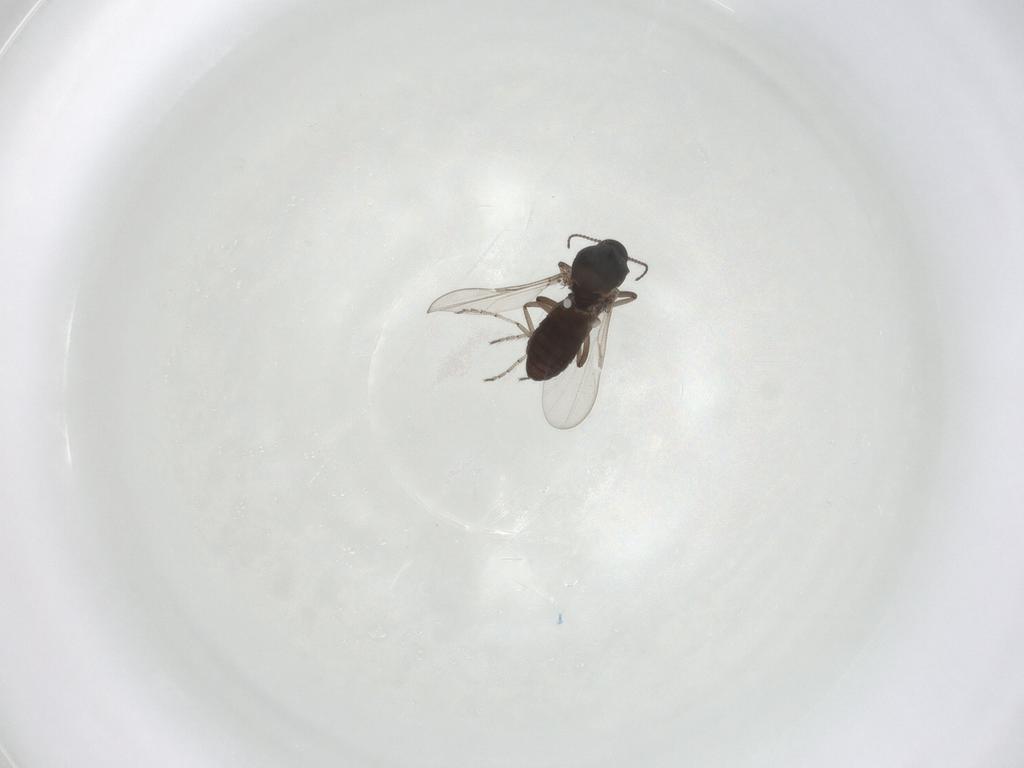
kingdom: Animalia
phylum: Arthropoda
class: Insecta
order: Diptera
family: Ceratopogonidae
